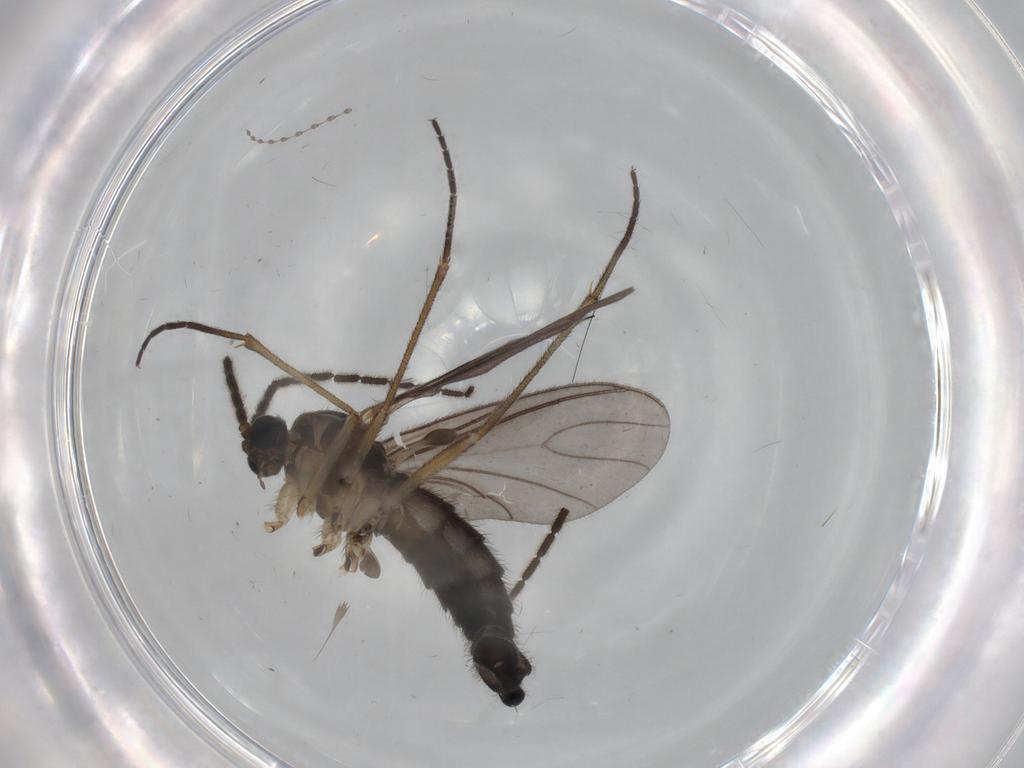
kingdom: Animalia
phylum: Arthropoda
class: Insecta
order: Diptera
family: Sciaridae
